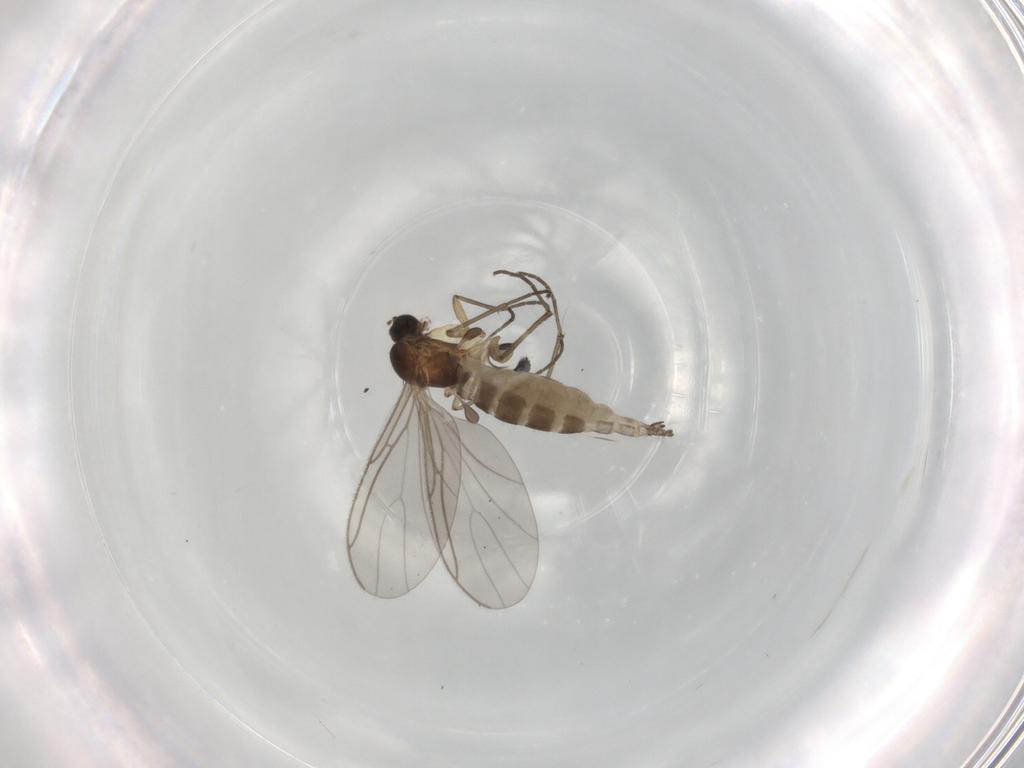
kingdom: Animalia
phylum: Arthropoda
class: Insecta
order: Diptera
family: Sciaridae
